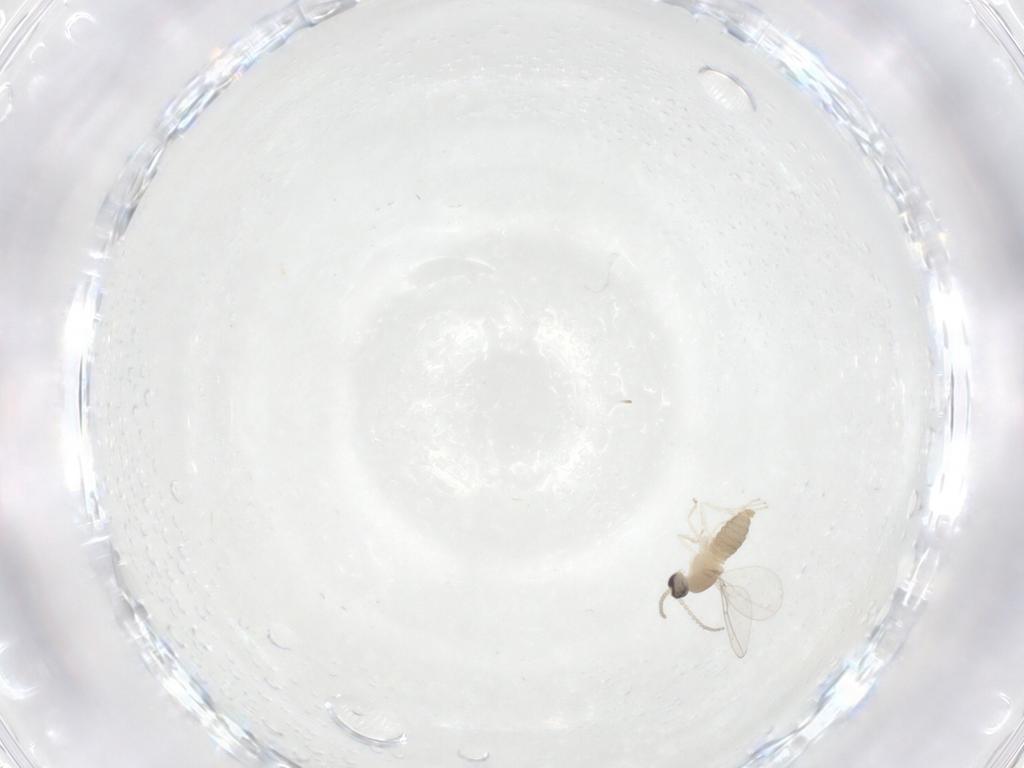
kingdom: Animalia
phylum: Arthropoda
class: Insecta
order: Diptera
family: Cecidomyiidae
